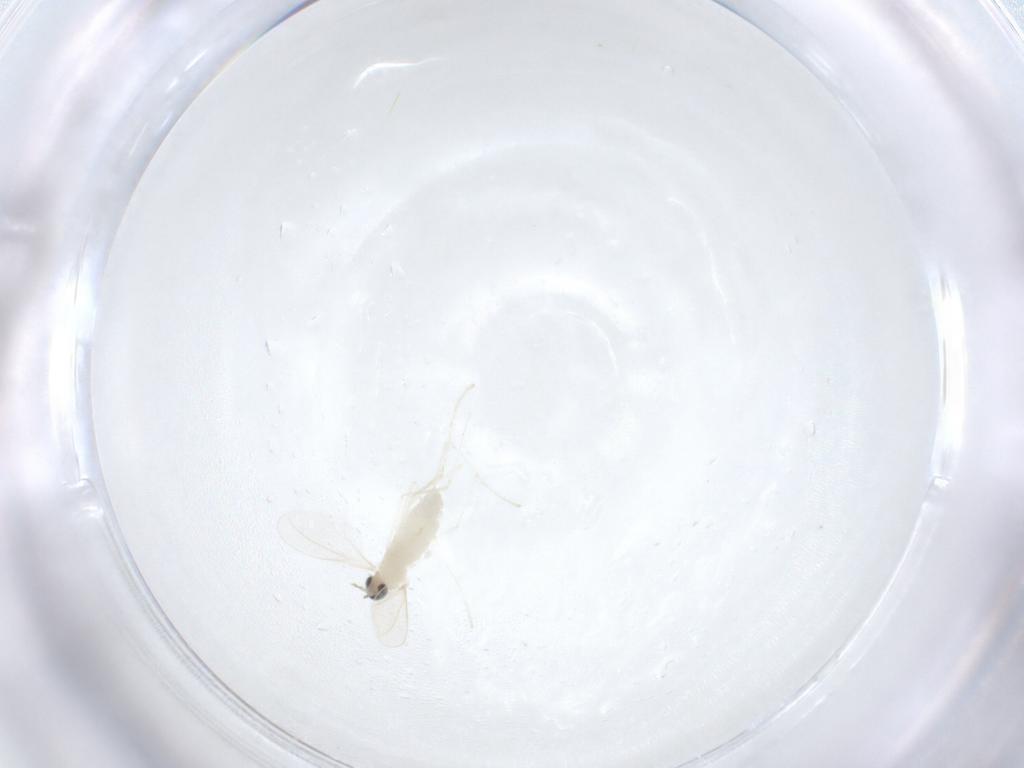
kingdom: Animalia
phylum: Arthropoda
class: Insecta
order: Diptera
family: Cecidomyiidae
